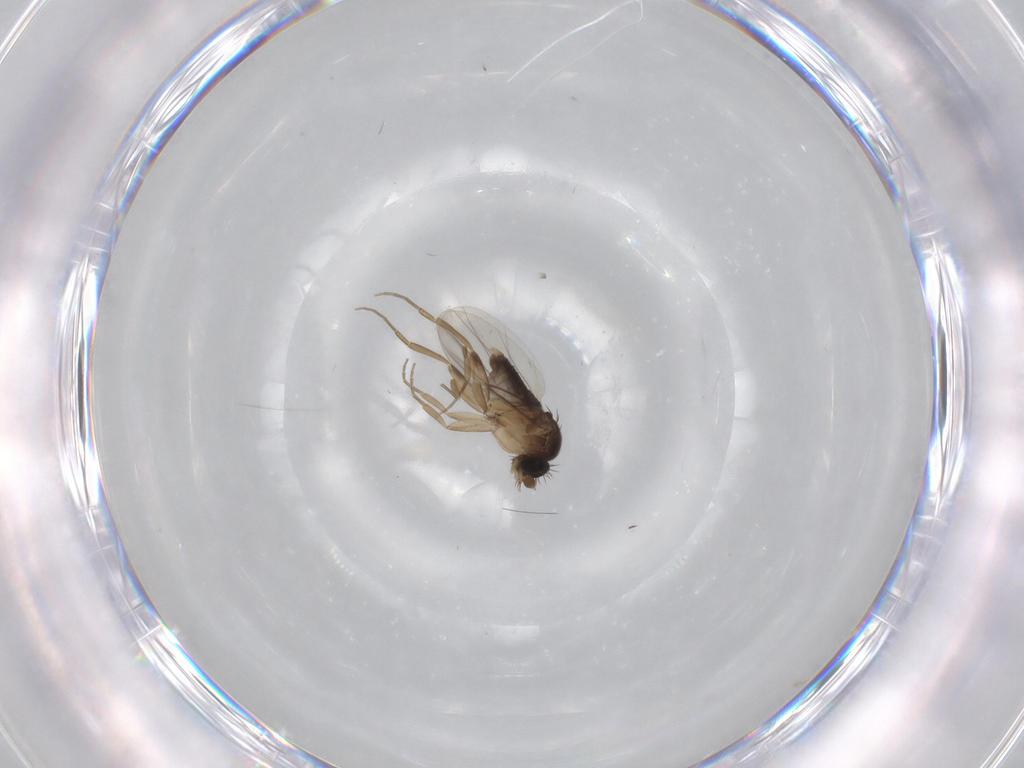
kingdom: Animalia
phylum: Arthropoda
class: Insecta
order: Diptera
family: Phoridae
